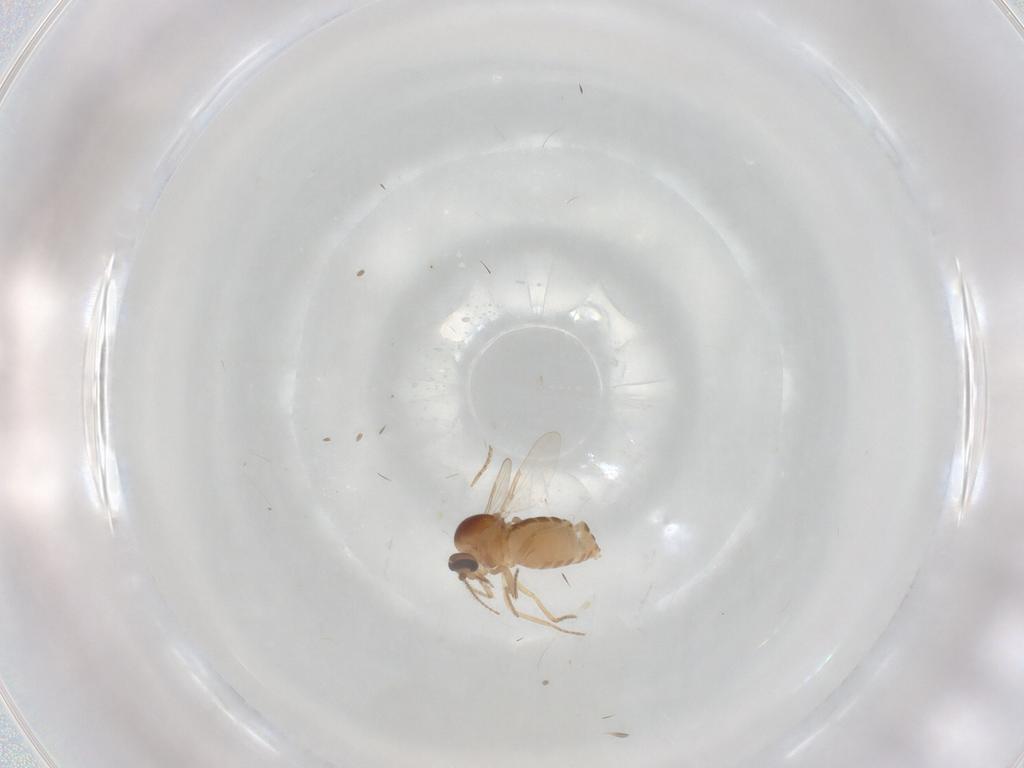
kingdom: Animalia
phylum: Arthropoda
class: Insecta
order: Diptera
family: Ceratopogonidae
